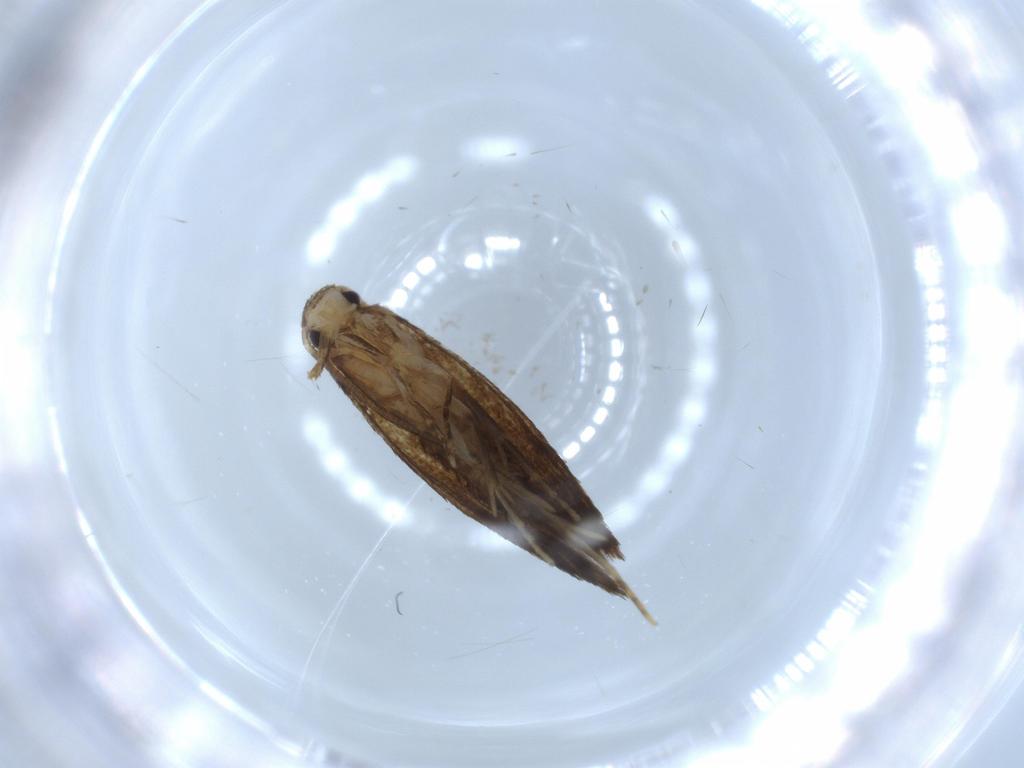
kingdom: Animalia
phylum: Arthropoda
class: Insecta
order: Lepidoptera
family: Tineidae
